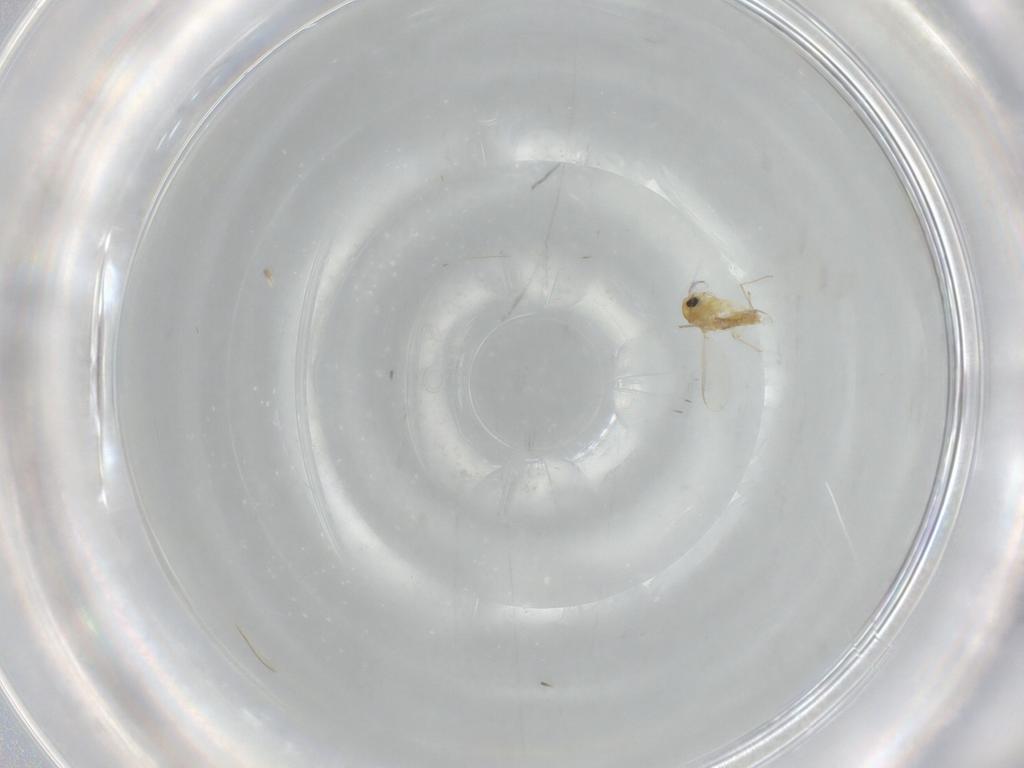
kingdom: Animalia
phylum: Arthropoda
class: Insecta
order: Diptera
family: Chironomidae
